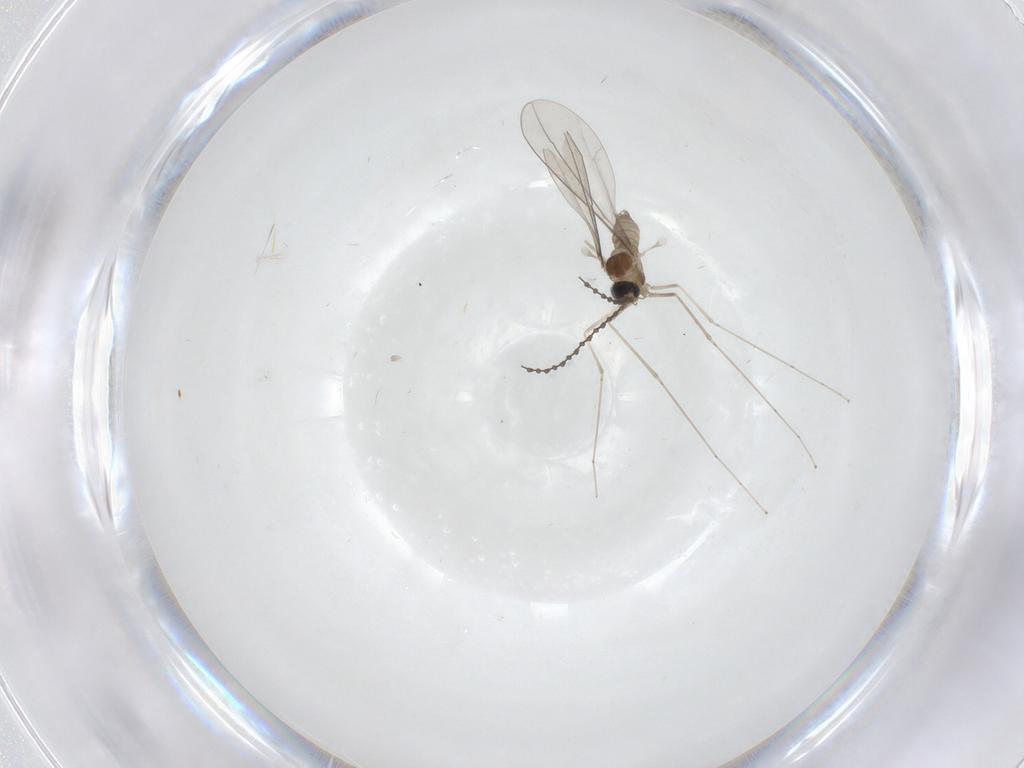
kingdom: Animalia
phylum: Arthropoda
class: Insecta
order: Diptera
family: Cecidomyiidae
